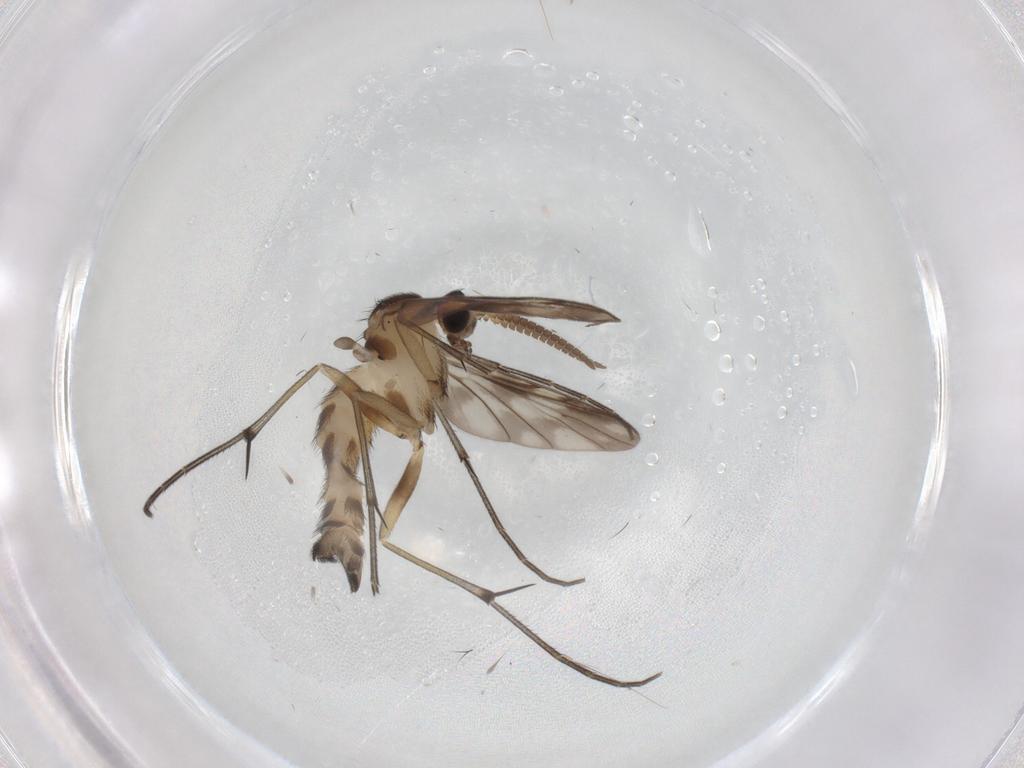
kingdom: Animalia
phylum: Arthropoda
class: Insecta
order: Diptera
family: Keroplatidae
